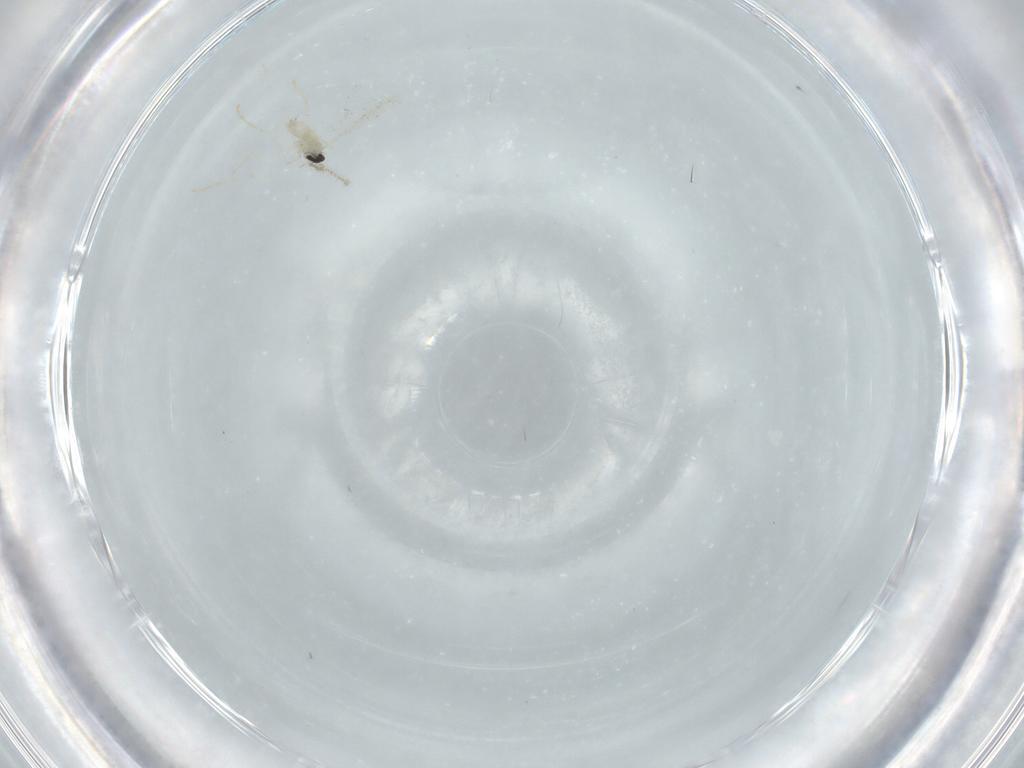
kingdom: Animalia
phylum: Arthropoda
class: Insecta
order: Diptera
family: Cecidomyiidae
